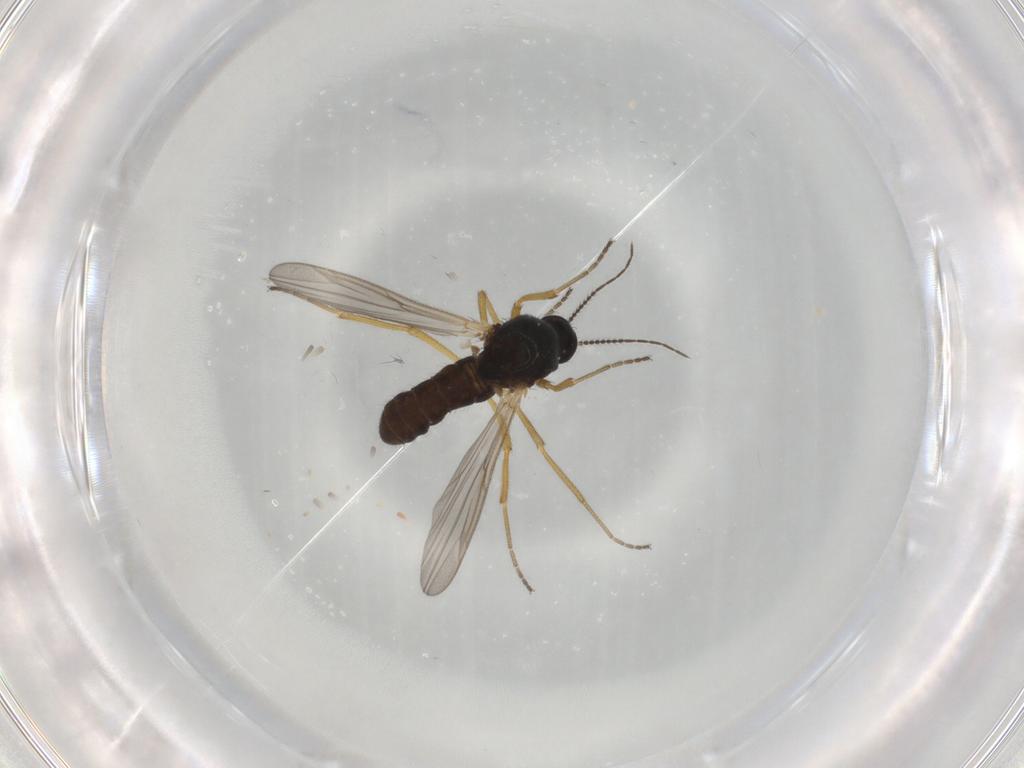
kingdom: Animalia
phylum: Arthropoda
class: Insecta
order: Diptera
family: Ceratopogonidae
